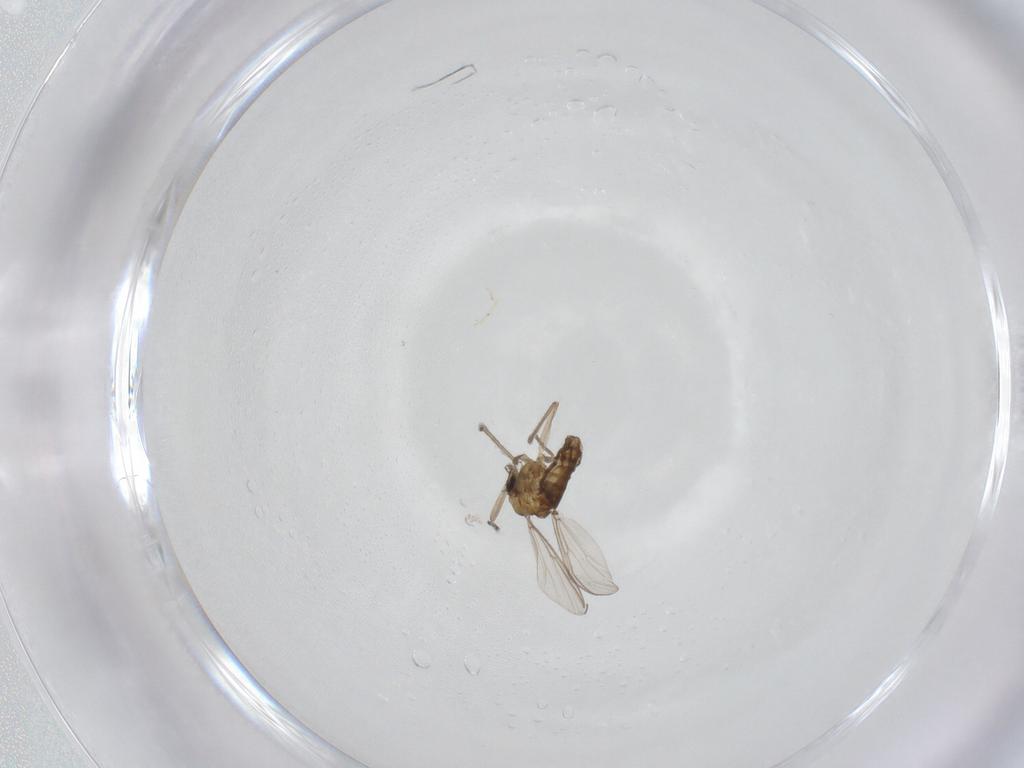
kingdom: Animalia
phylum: Arthropoda
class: Insecta
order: Diptera
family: Chironomidae
